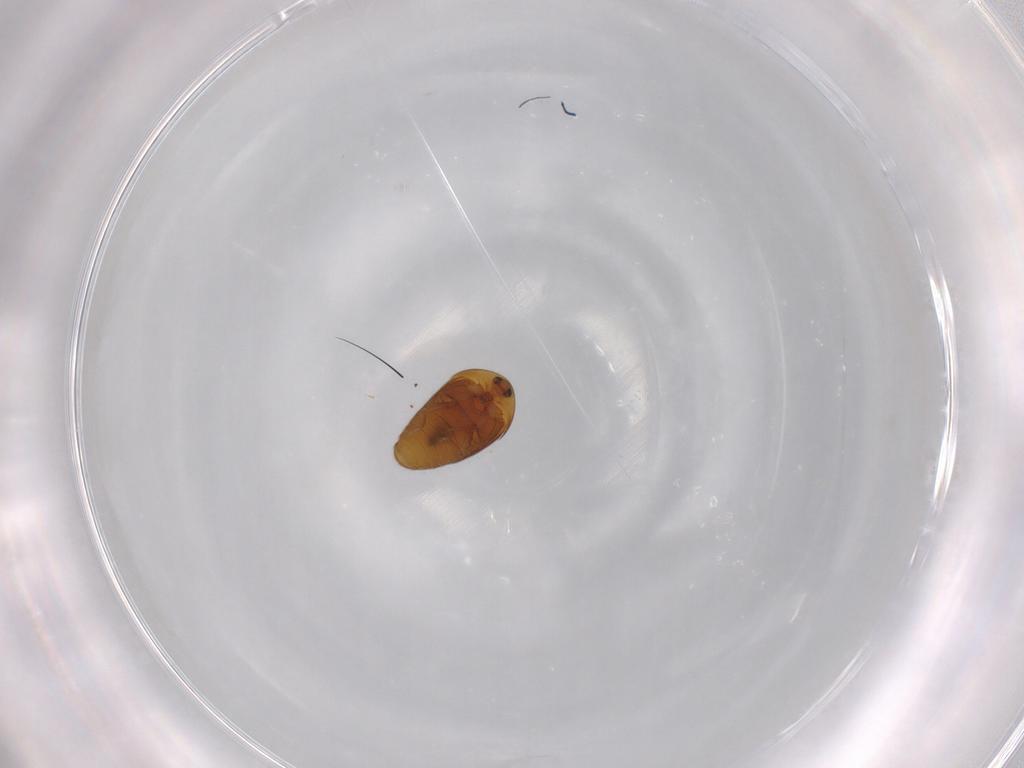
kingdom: Animalia
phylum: Arthropoda
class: Insecta
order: Coleoptera
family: Corylophidae
